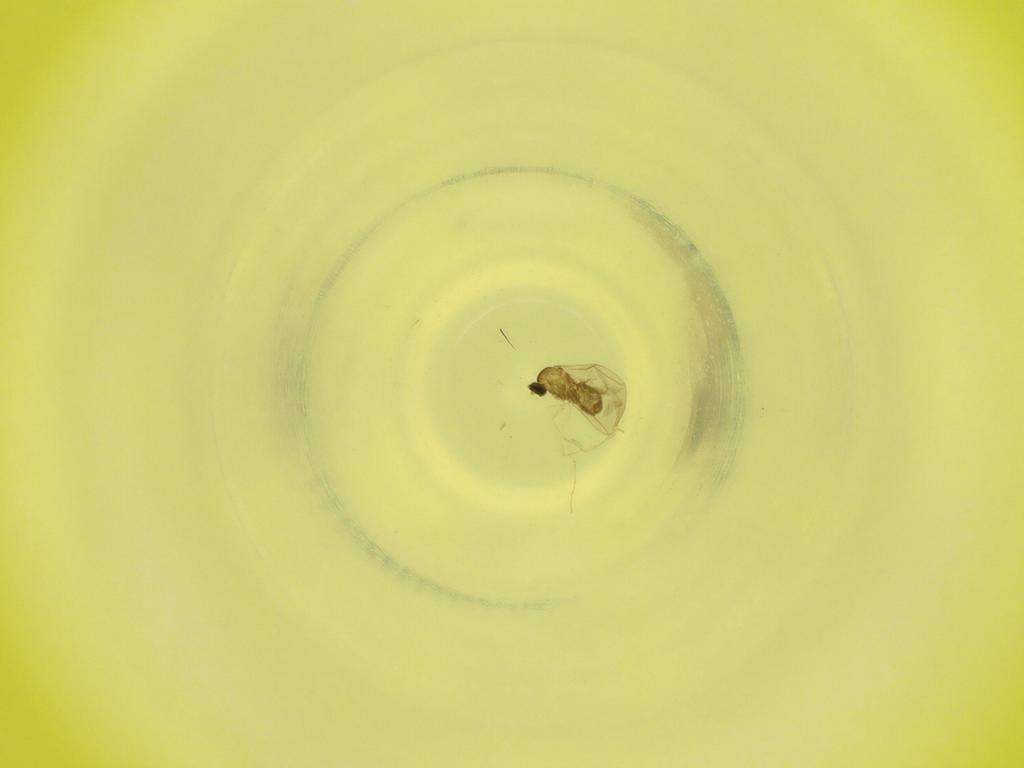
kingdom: Animalia
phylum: Arthropoda
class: Insecta
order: Diptera
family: Cecidomyiidae
